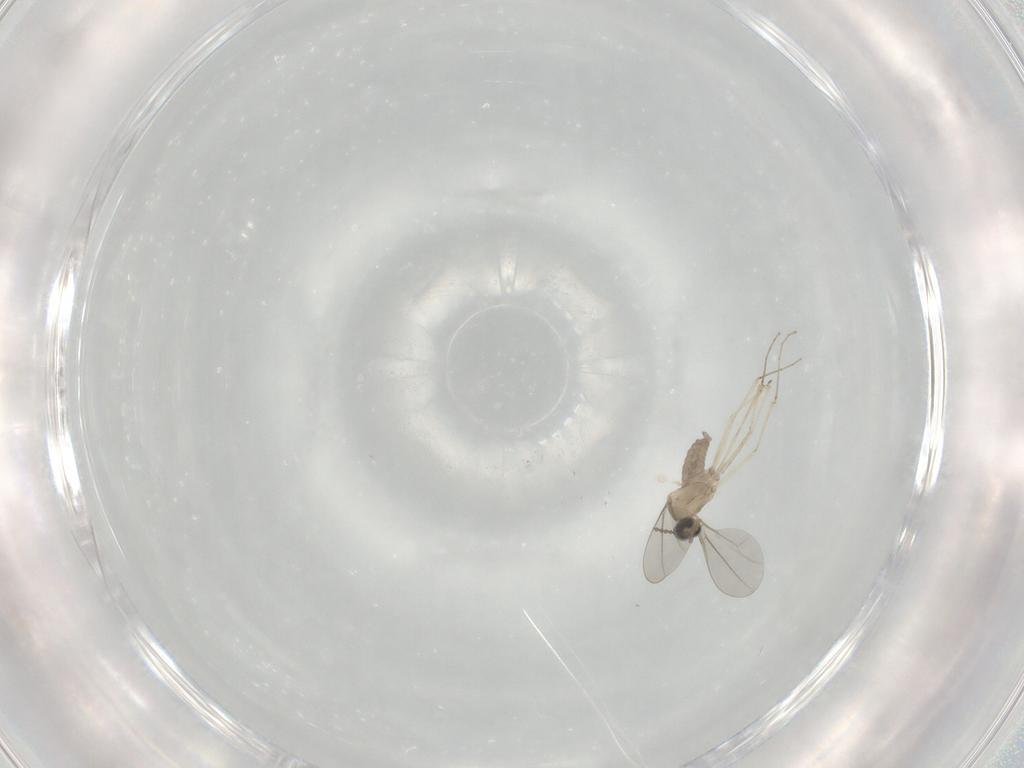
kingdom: Animalia
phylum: Arthropoda
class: Insecta
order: Diptera
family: Cecidomyiidae
